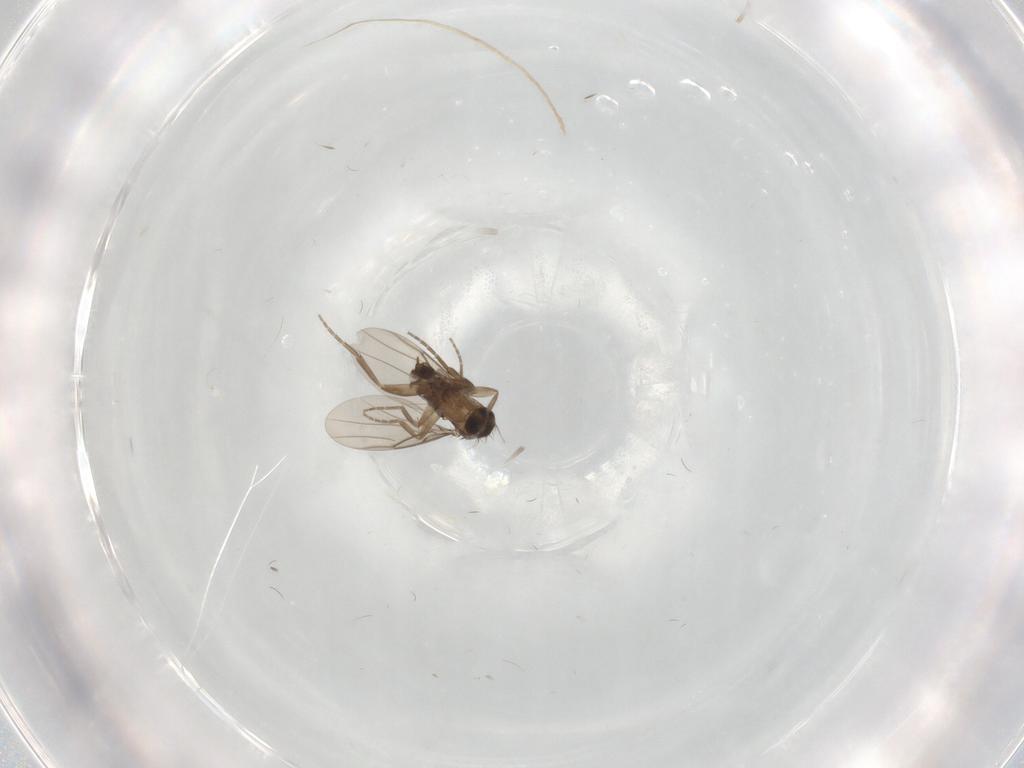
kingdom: Animalia
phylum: Arthropoda
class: Insecta
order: Diptera
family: Phoridae
